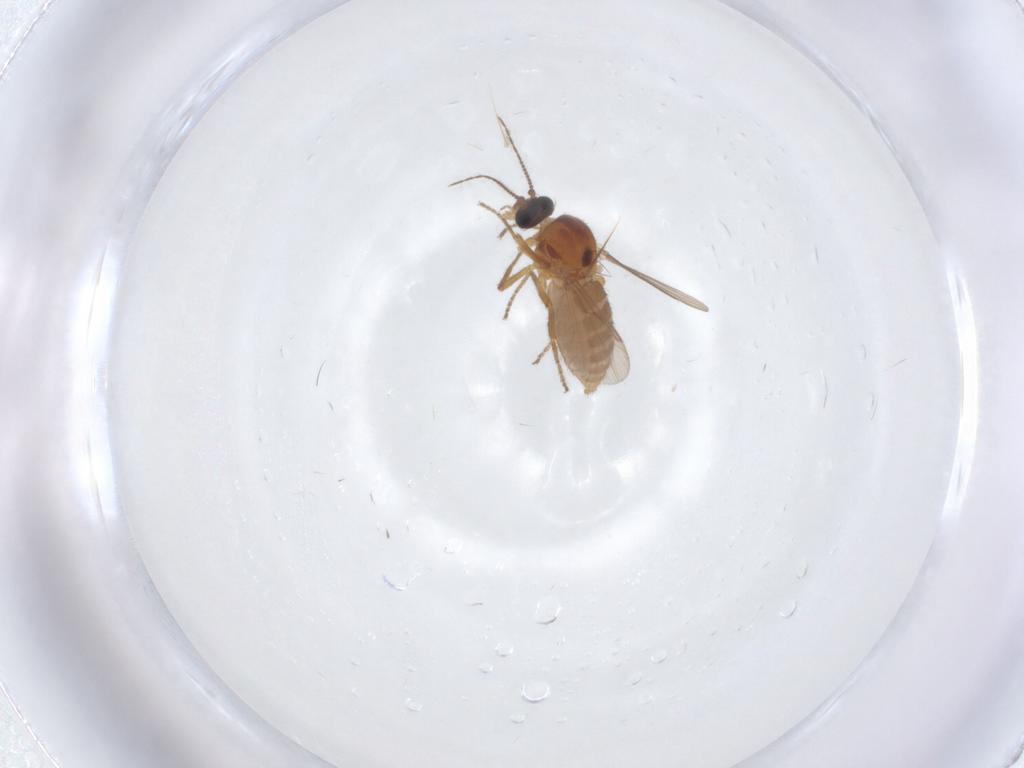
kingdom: Animalia
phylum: Arthropoda
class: Insecta
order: Diptera
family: Ceratopogonidae
